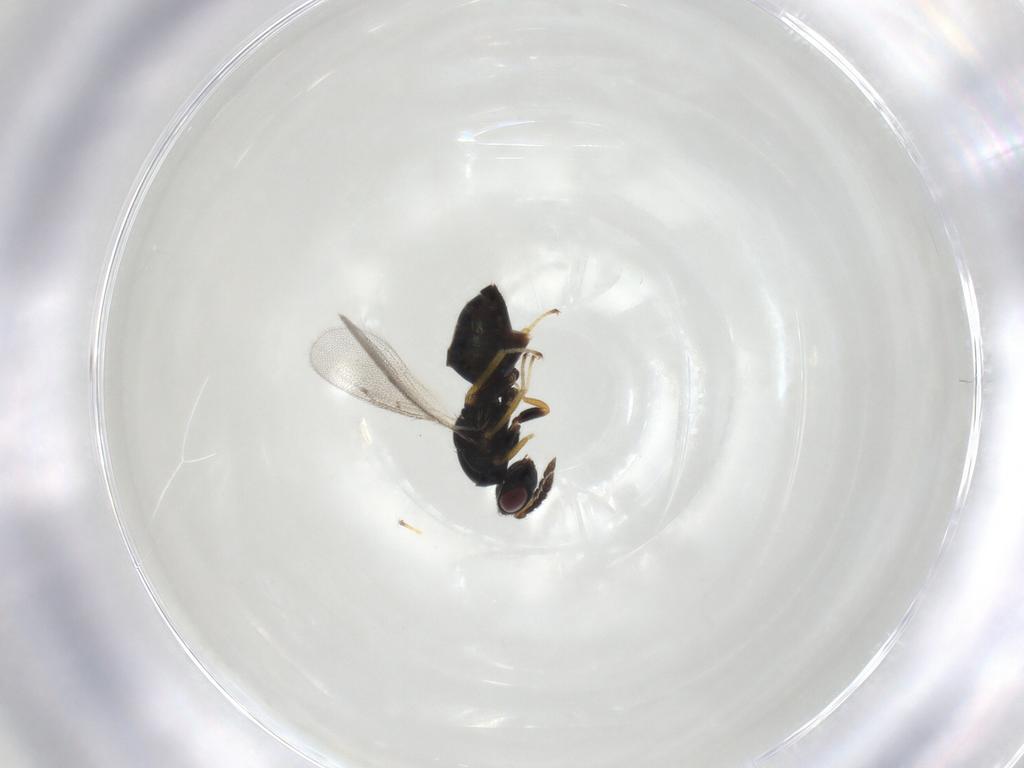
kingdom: Animalia
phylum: Arthropoda
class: Insecta
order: Hymenoptera
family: Eulophidae
